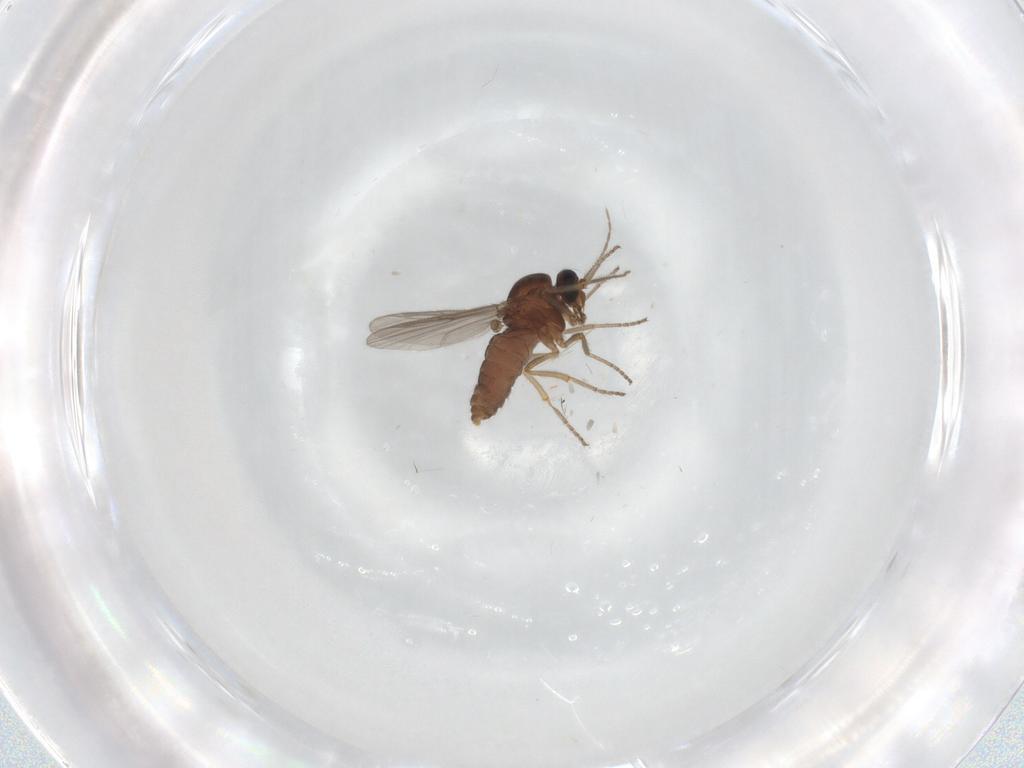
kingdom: Animalia
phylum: Arthropoda
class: Insecta
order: Diptera
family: Ceratopogonidae
